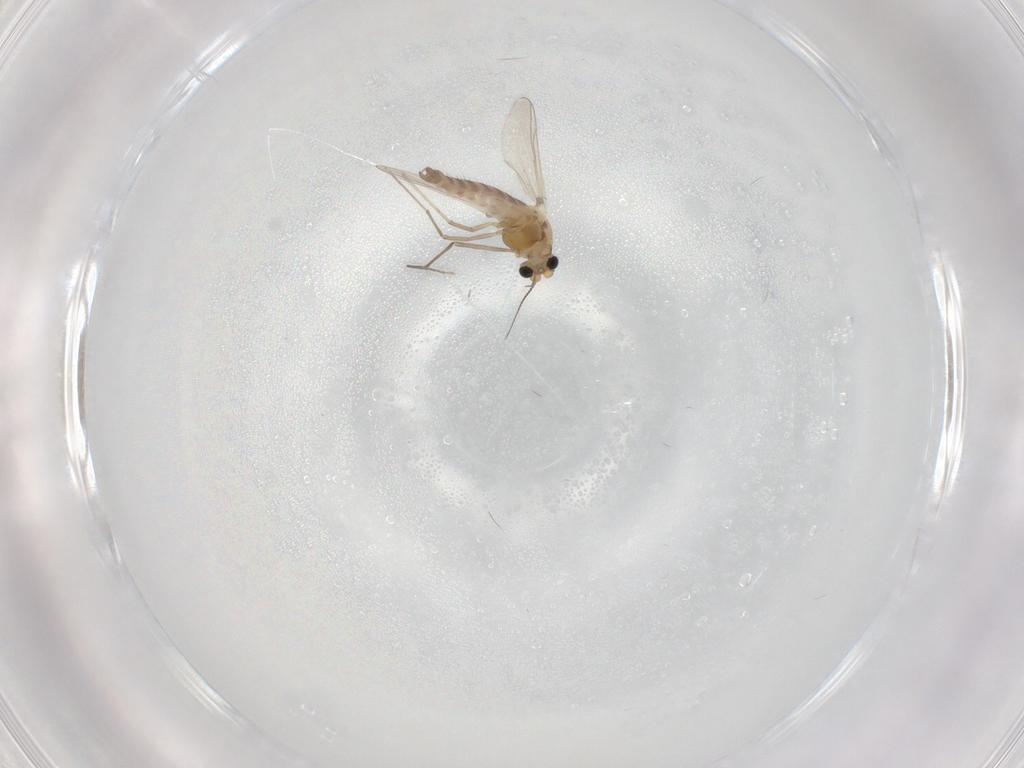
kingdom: Animalia
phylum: Arthropoda
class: Insecta
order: Diptera
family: Chironomidae
